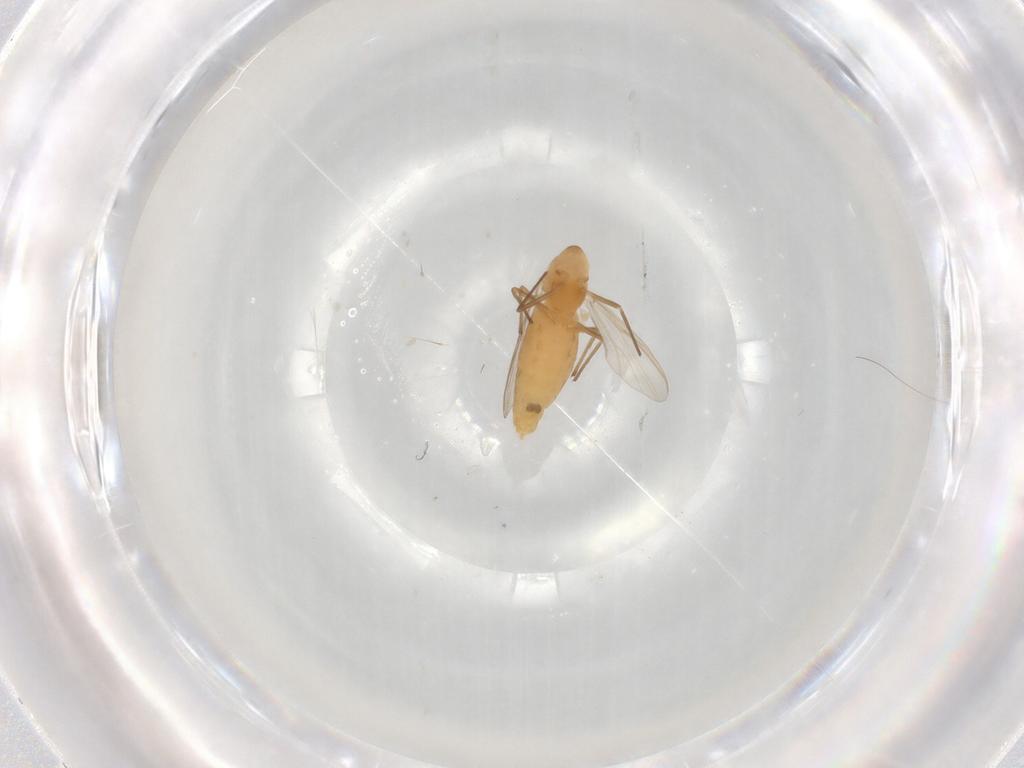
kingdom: Animalia
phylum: Arthropoda
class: Insecta
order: Diptera
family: Chironomidae
